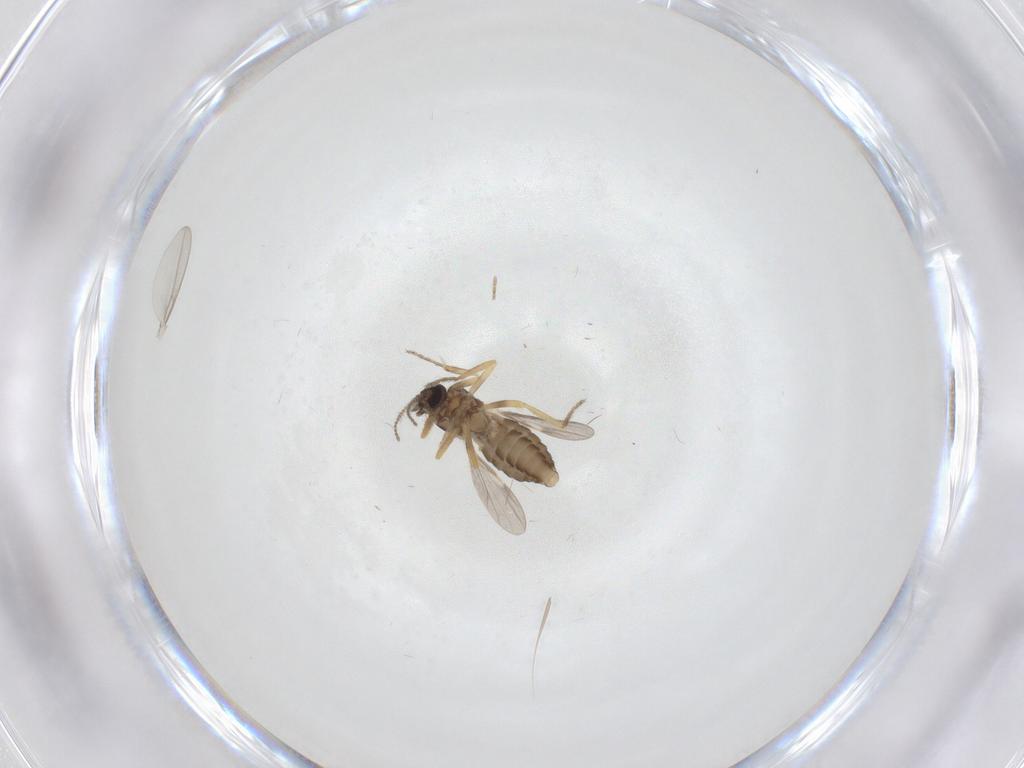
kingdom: Animalia
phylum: Arthropoda
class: Insecta
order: Diptera
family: Ceratopogonidae
